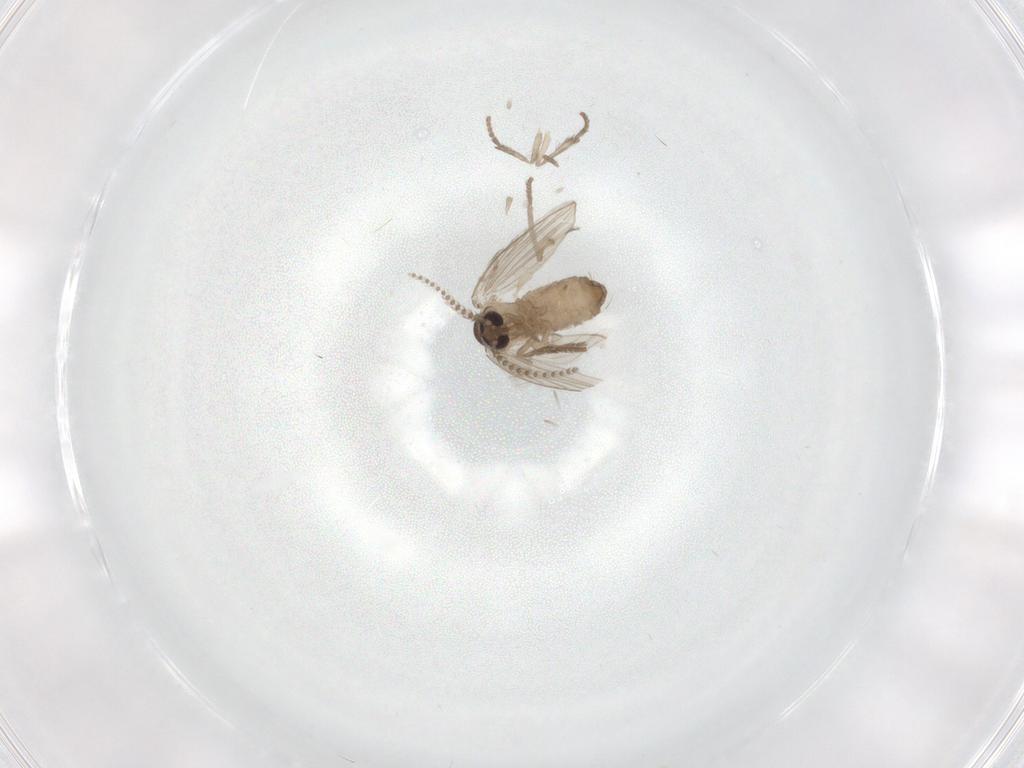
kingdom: Animalia
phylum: Arthropoda
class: Insecta
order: Diptera
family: Psychodidae
